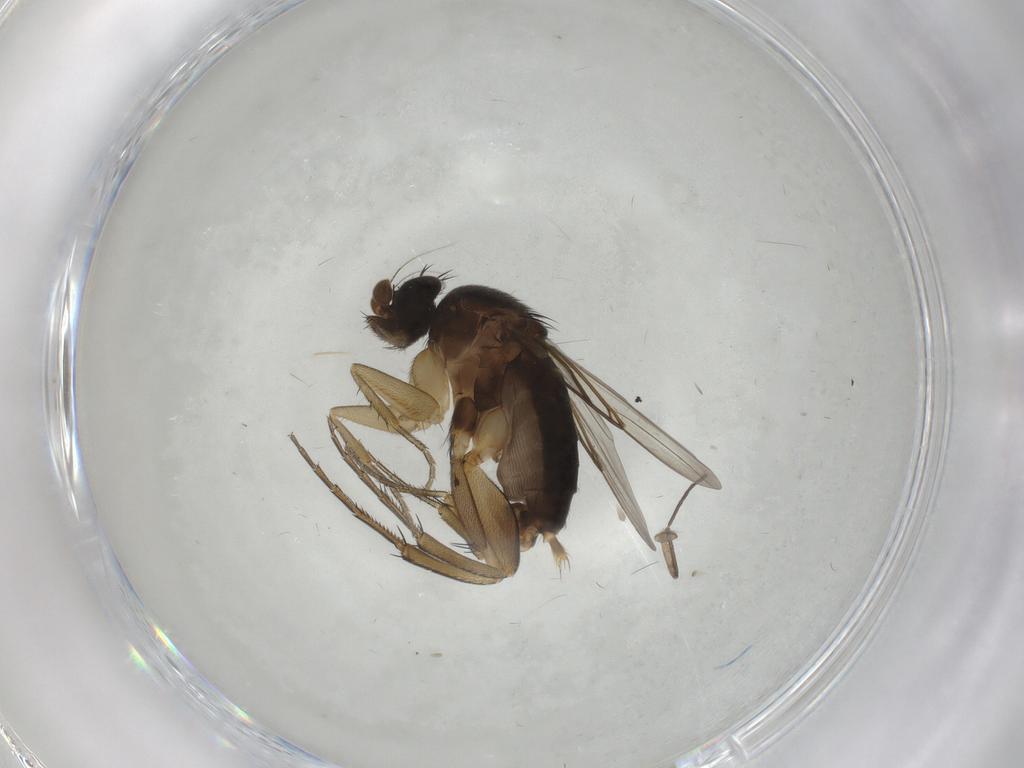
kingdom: Animalia
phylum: Arthropoda
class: Insecta
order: Diptera
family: Phoridae
